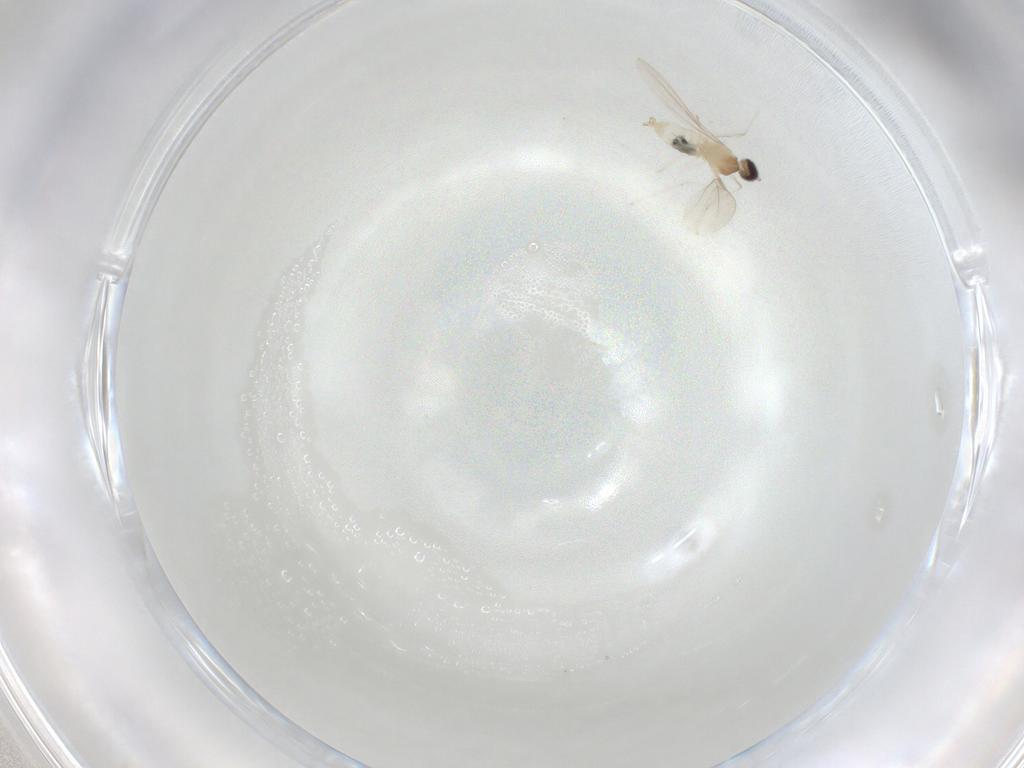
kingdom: Animalia
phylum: Arthropoda
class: Insecta
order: Diptera
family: Cecidomyiidae
